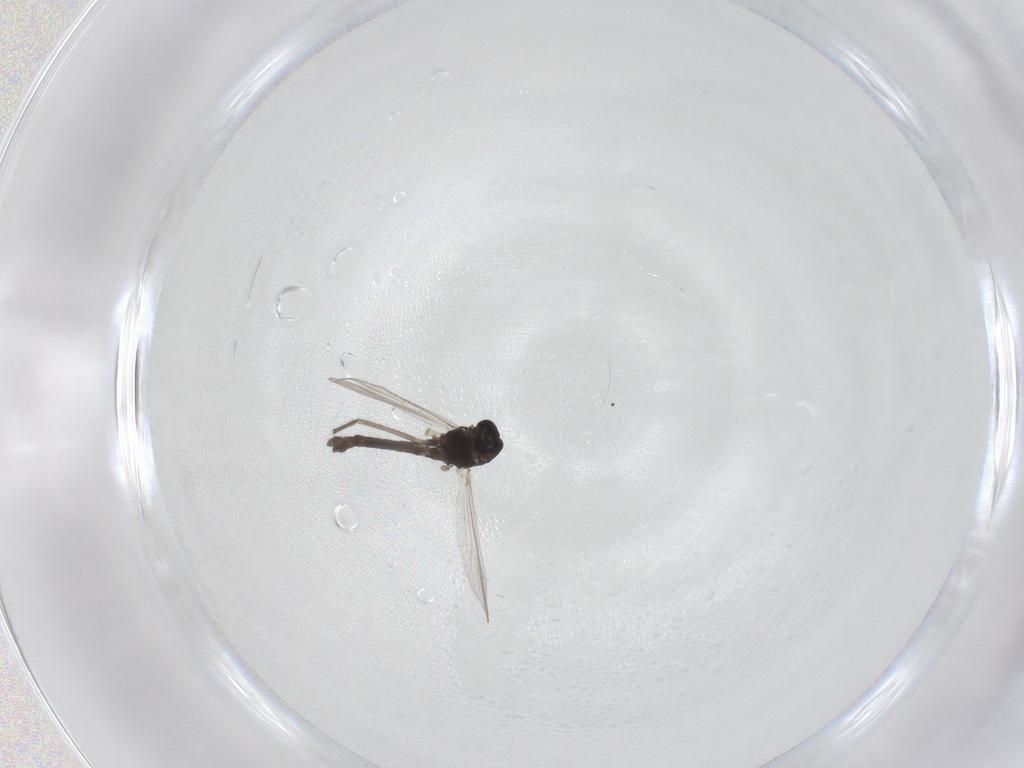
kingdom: Animalia
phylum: Arthropoda
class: Insecta
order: Diptera
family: Chironomidae
